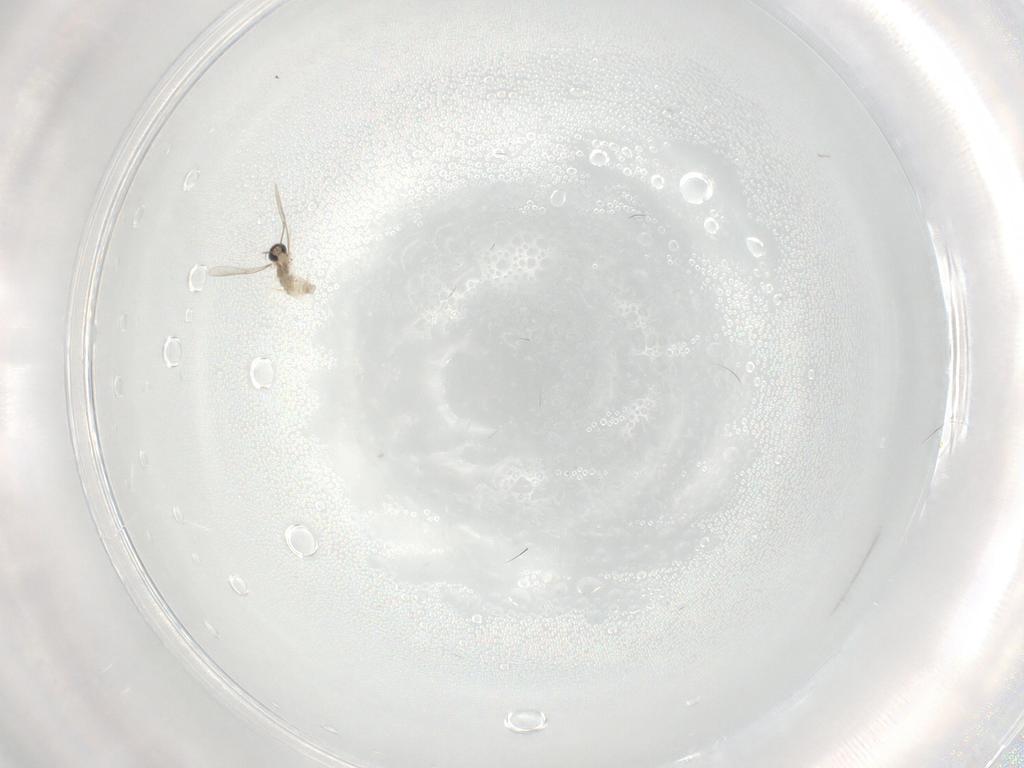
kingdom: Animalia
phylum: Arthropoda
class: Insecta
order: Diptera
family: Cecidomyiidae
